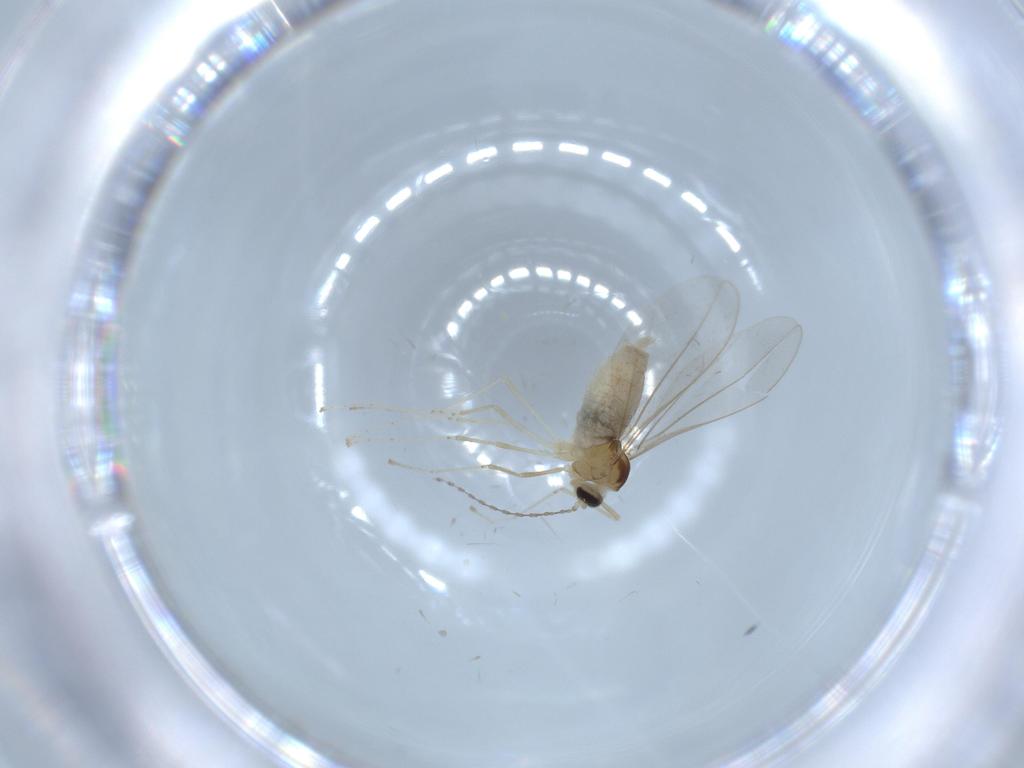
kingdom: Animalia
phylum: Arthropoda
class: Insecta
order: Diptera
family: Cecidomyiidae
